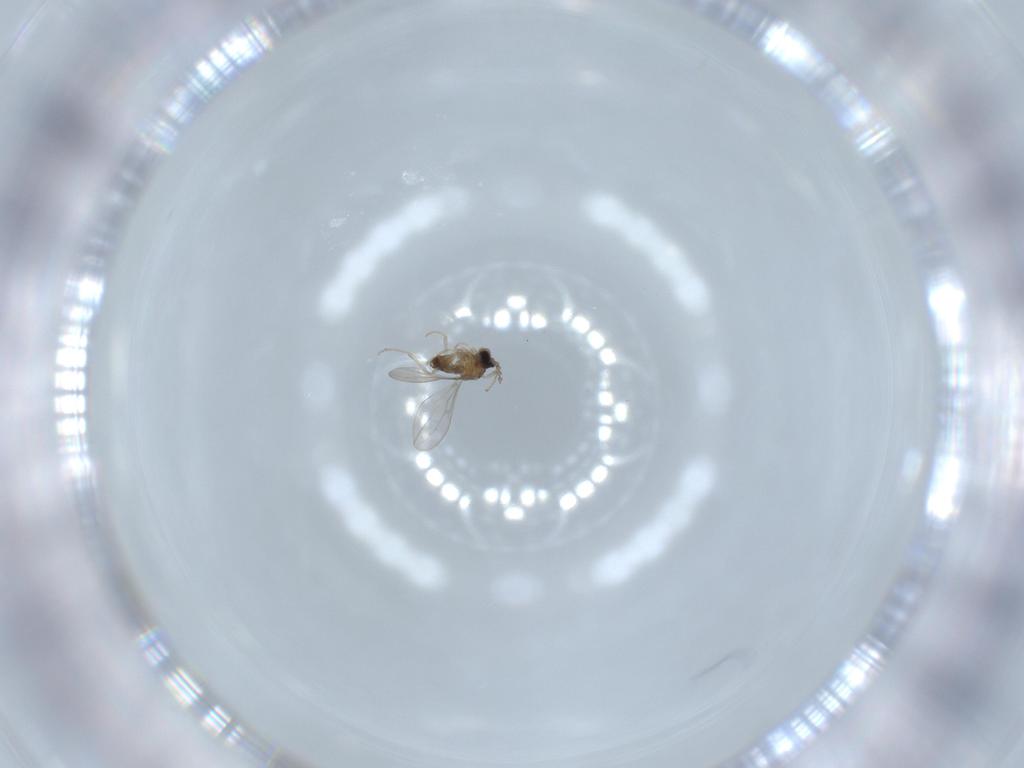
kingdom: Animalia
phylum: Arthropoda
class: Insecta
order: Diptera
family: Cecidomyiidae
